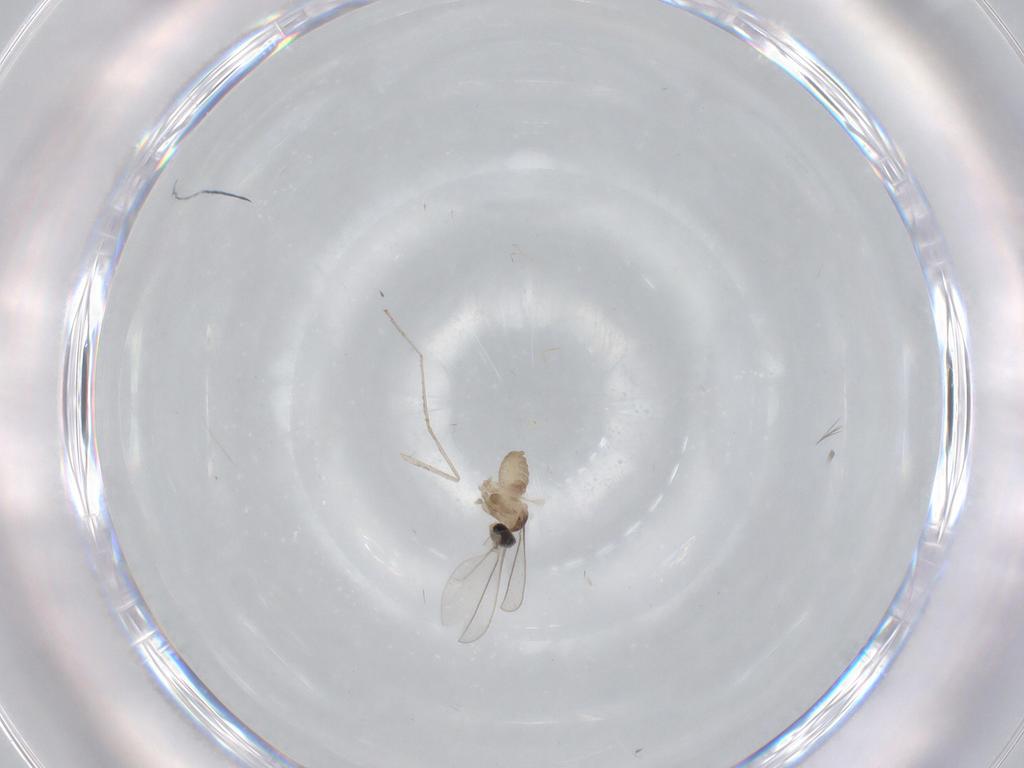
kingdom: Animalia
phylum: Arthropoda
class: Insecta
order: Diptera
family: Cecidomyiidae
